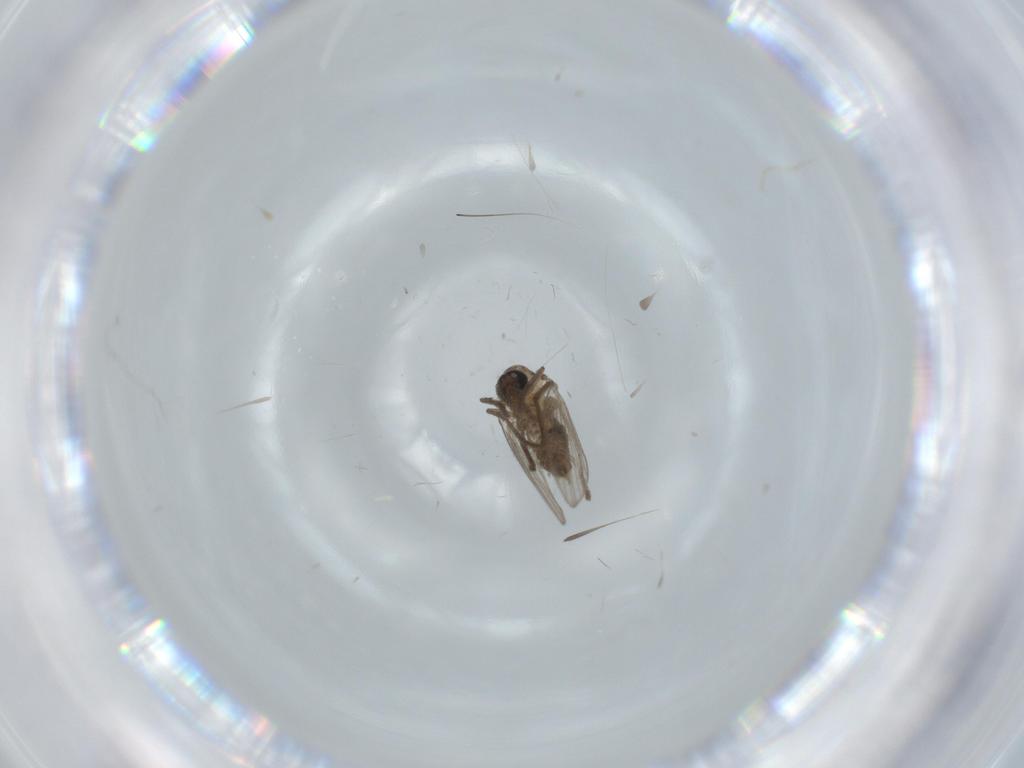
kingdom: Animalia
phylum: Arthropoda
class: Insecta
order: Diptera
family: Psychodidae
